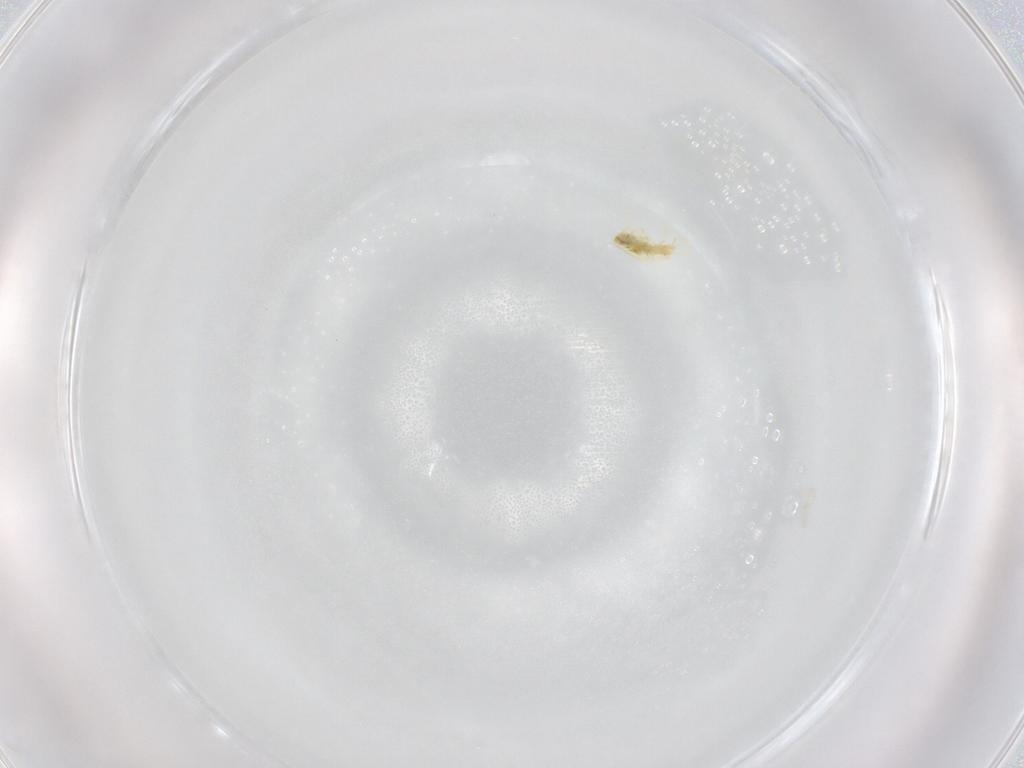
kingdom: Animalia
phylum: Arthropoda
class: Arachnida
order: Trombidiformes
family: Tetranychidae
